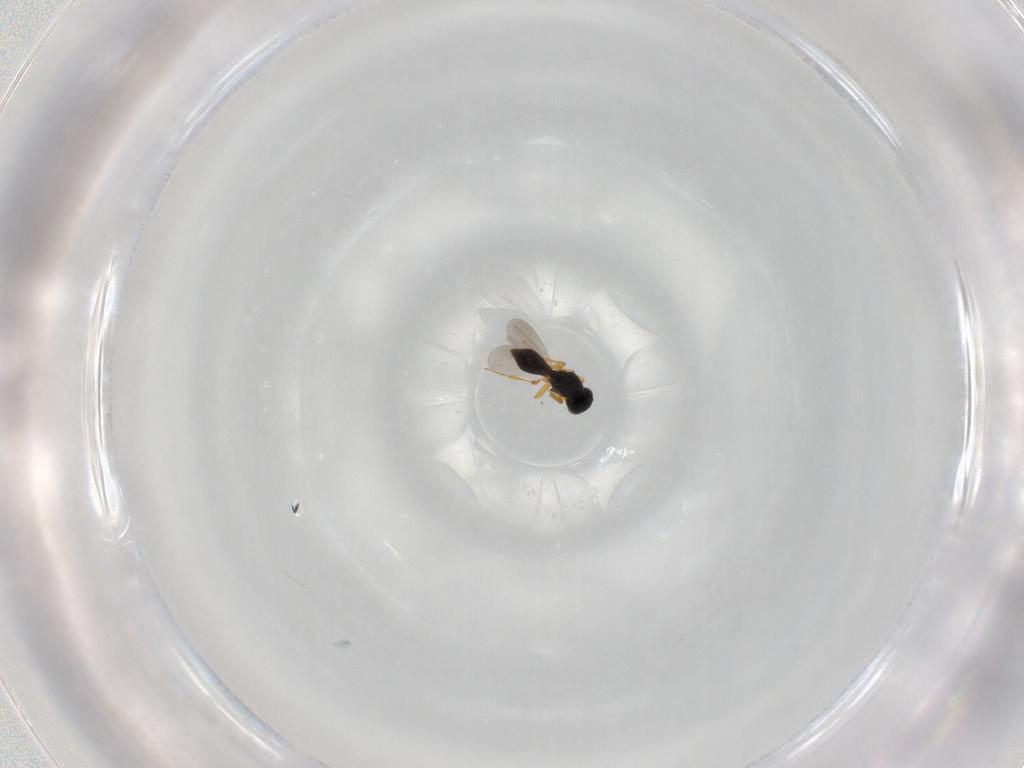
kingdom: Animalia
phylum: Arthropoda
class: Insecta
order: Hymenoptera
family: Platygastridae
